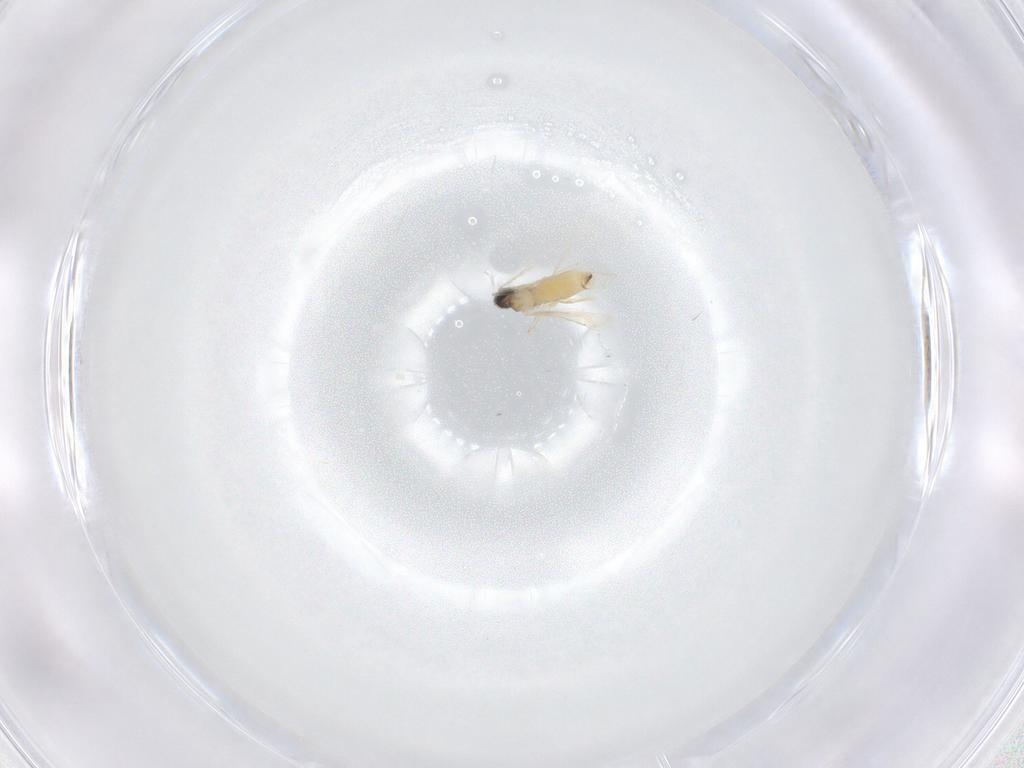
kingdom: Animalia
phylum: Arthropoda
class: Insecta
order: Diptera
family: Cecidomyiidae
